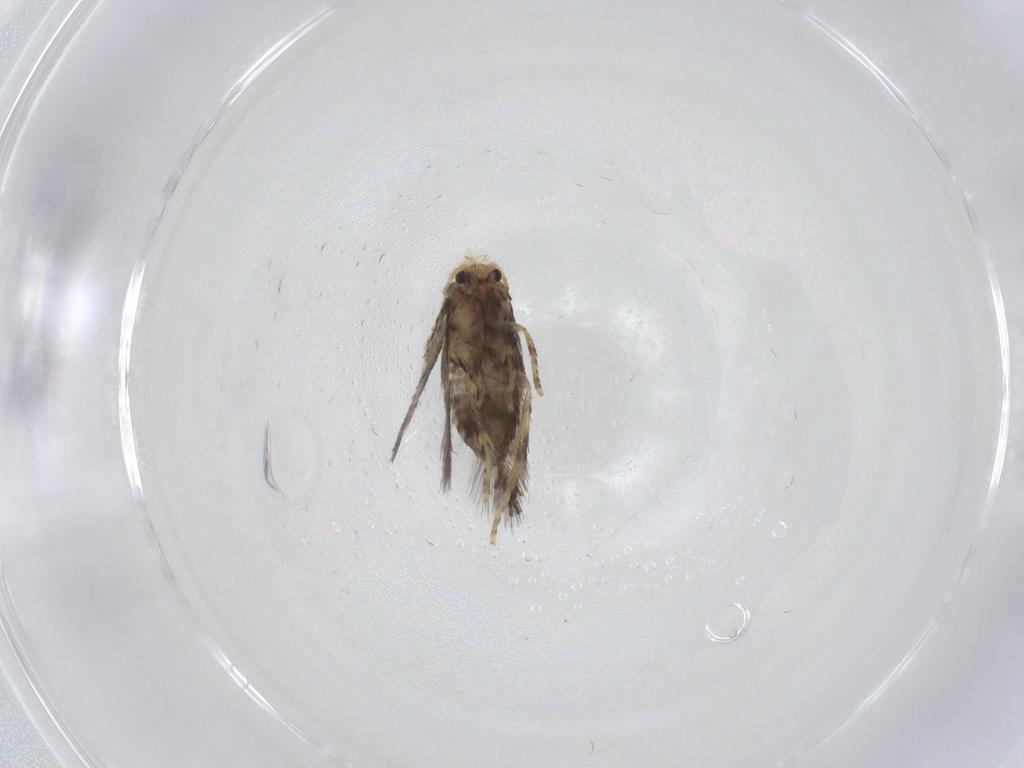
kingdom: Animalia
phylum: Arthropoda
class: Insecta
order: Lepidoptera
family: Nepticulidae
